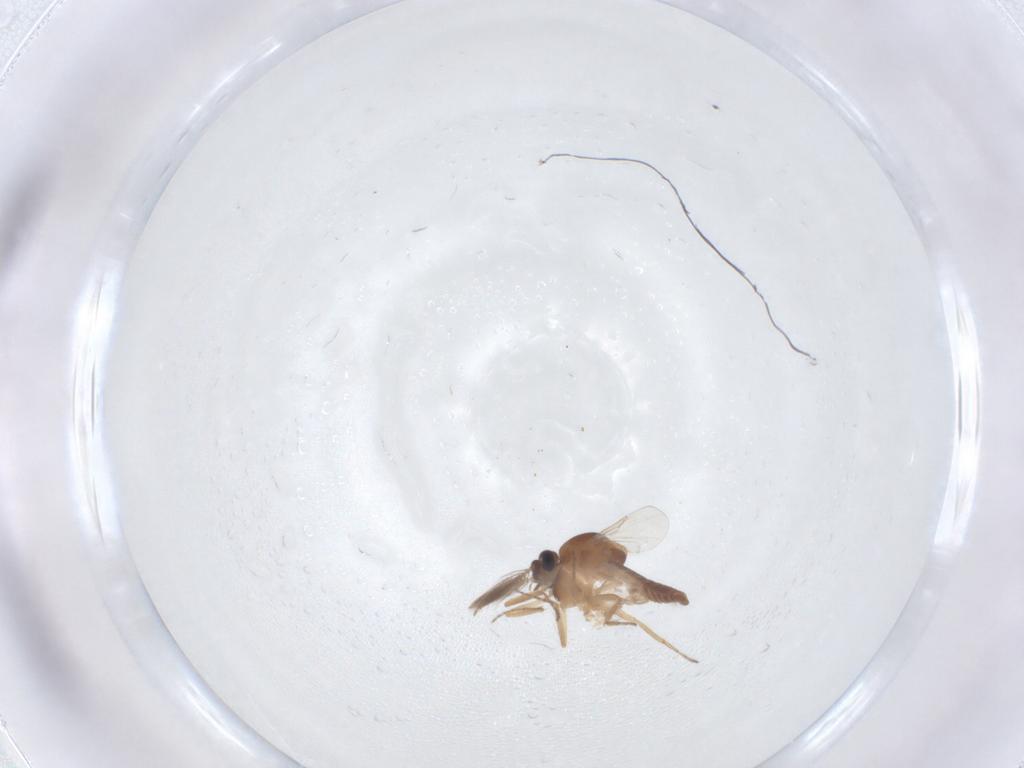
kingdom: Animalia
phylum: Arthropoda
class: Insecta
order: Diptera
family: Ceratopogonidae
